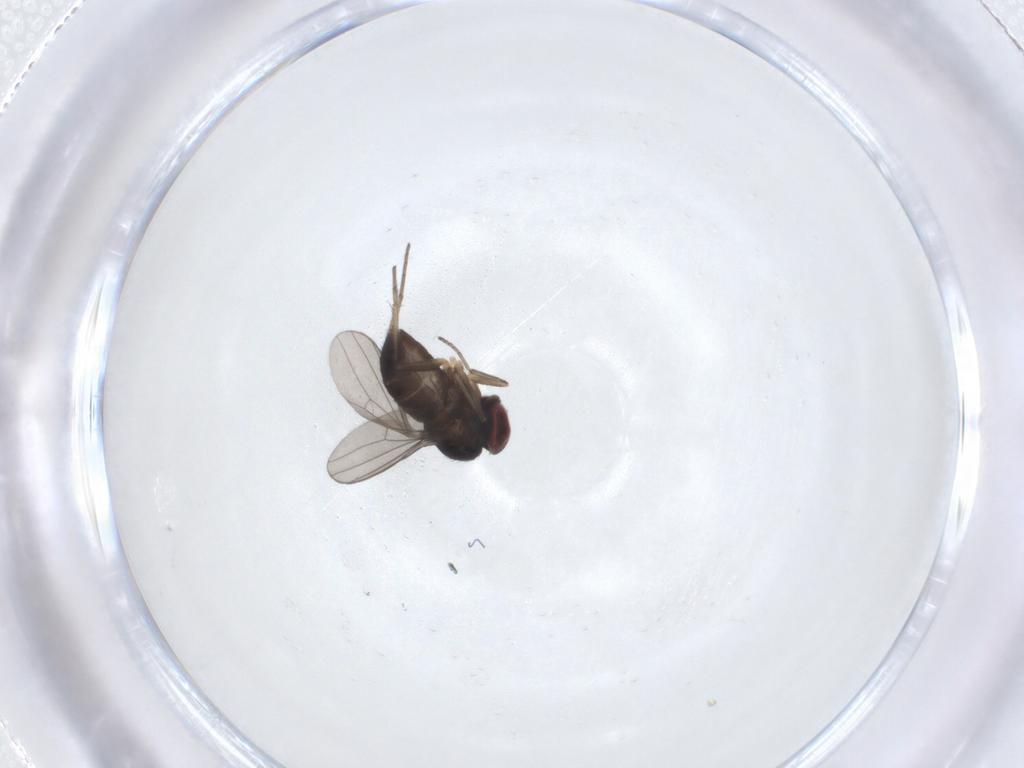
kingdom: Animalia
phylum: Arthropoda
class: Insecta
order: Diptera
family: Dolichopodidae
